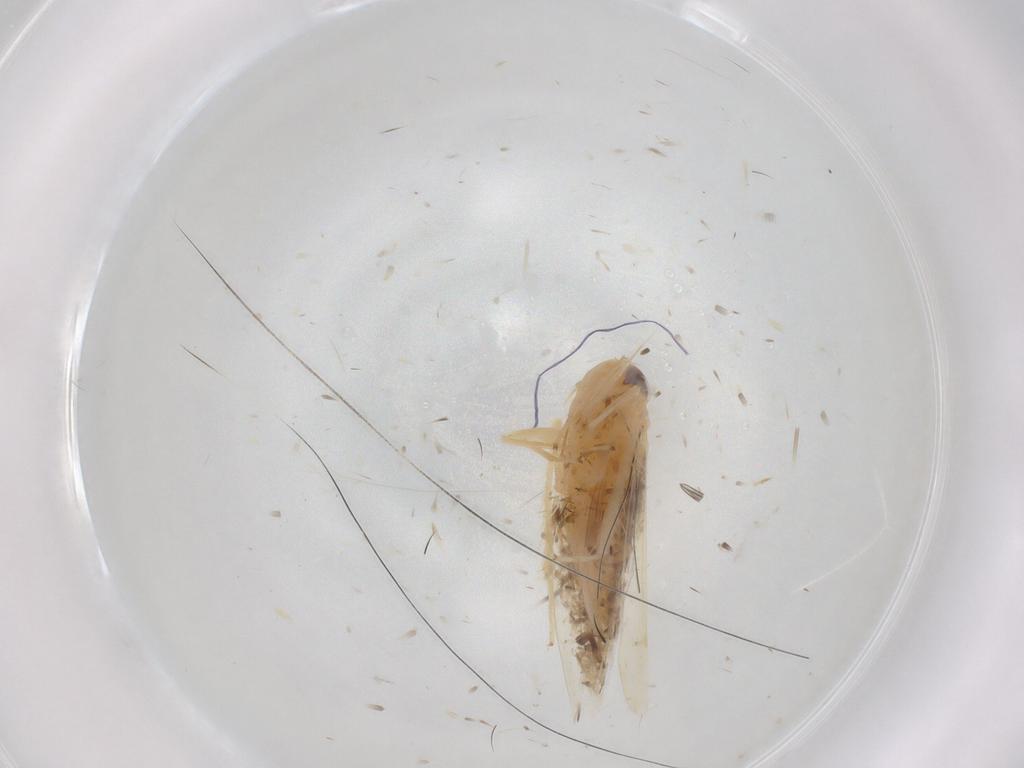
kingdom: Animalia
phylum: Arthropoda
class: Insecta
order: Hemiptera
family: Cicadellidae
